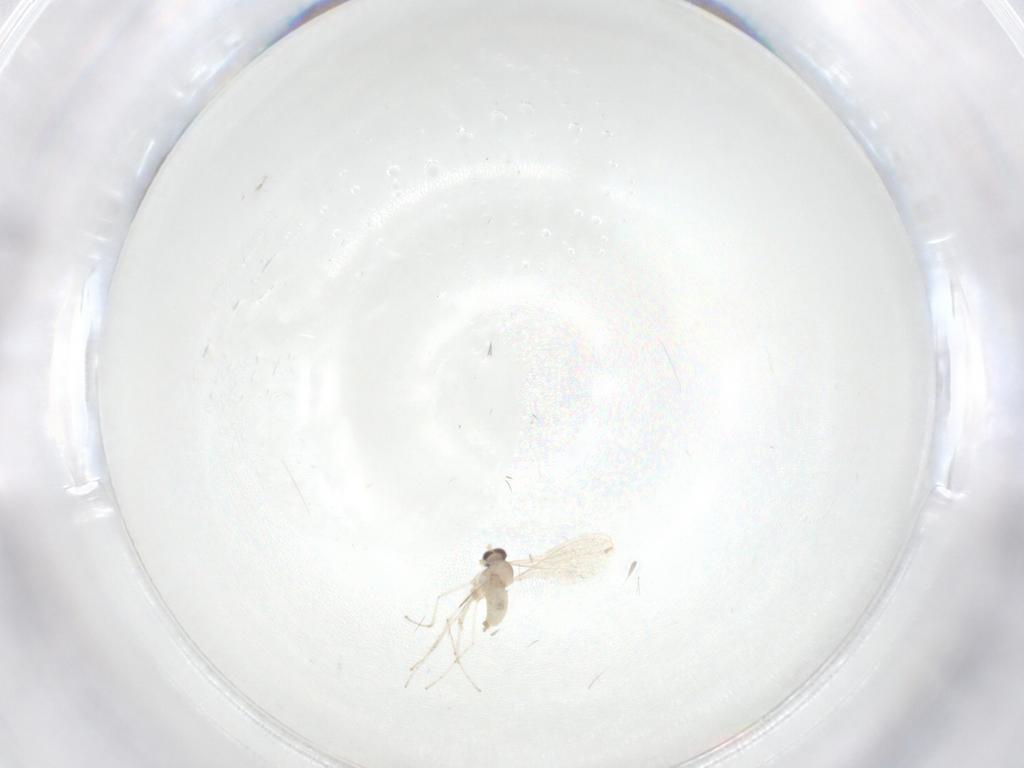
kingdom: Animalia
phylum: Arthropoda
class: Insecta
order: Diptera
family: Cecidomyiidae
